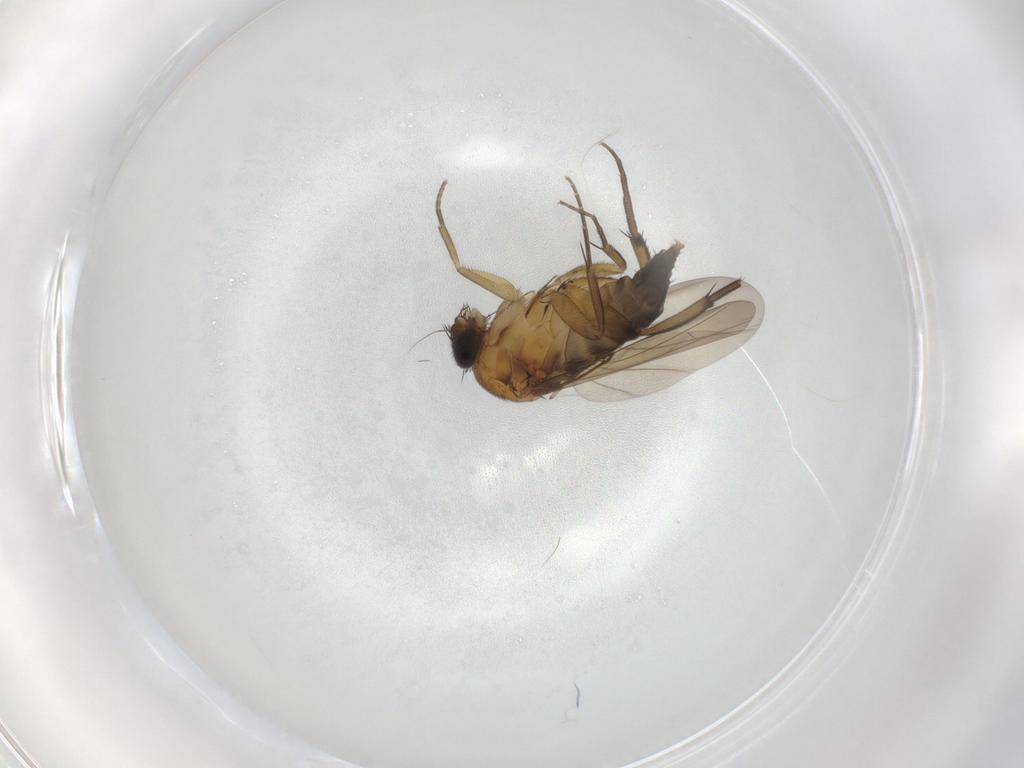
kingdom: Animalia
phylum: Arthropoda
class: Insecta
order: Diptera
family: Phoridae
